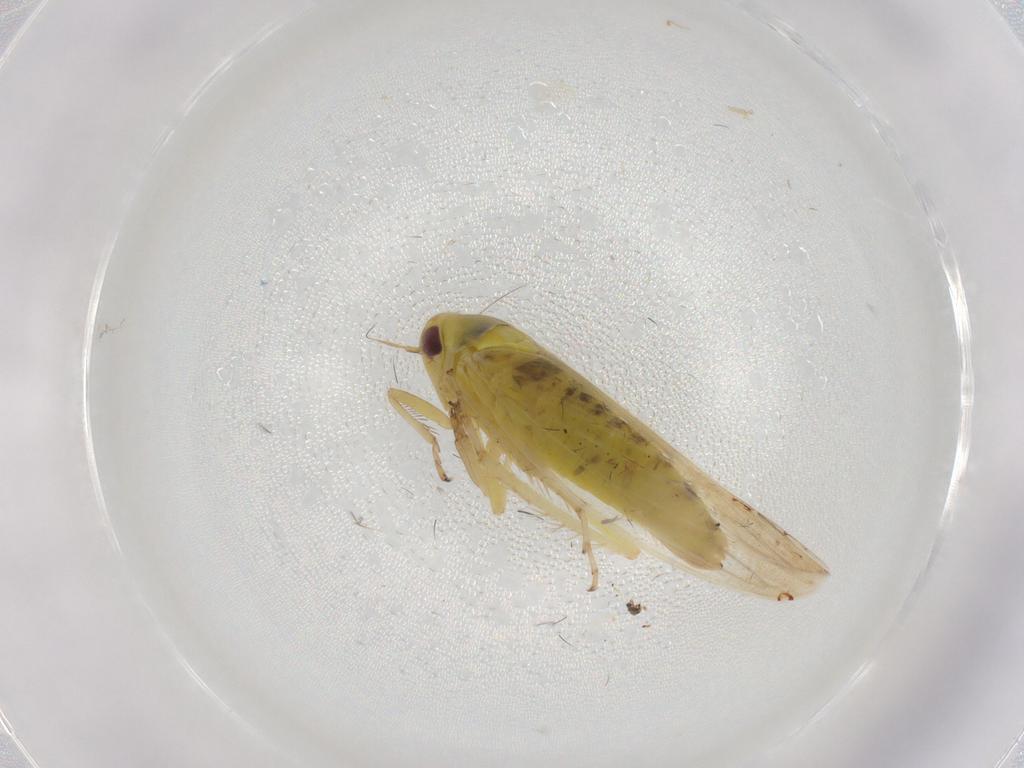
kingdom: Animalia
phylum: Arthropoda
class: Insecta
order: Hemiptera
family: Cicadellidae
